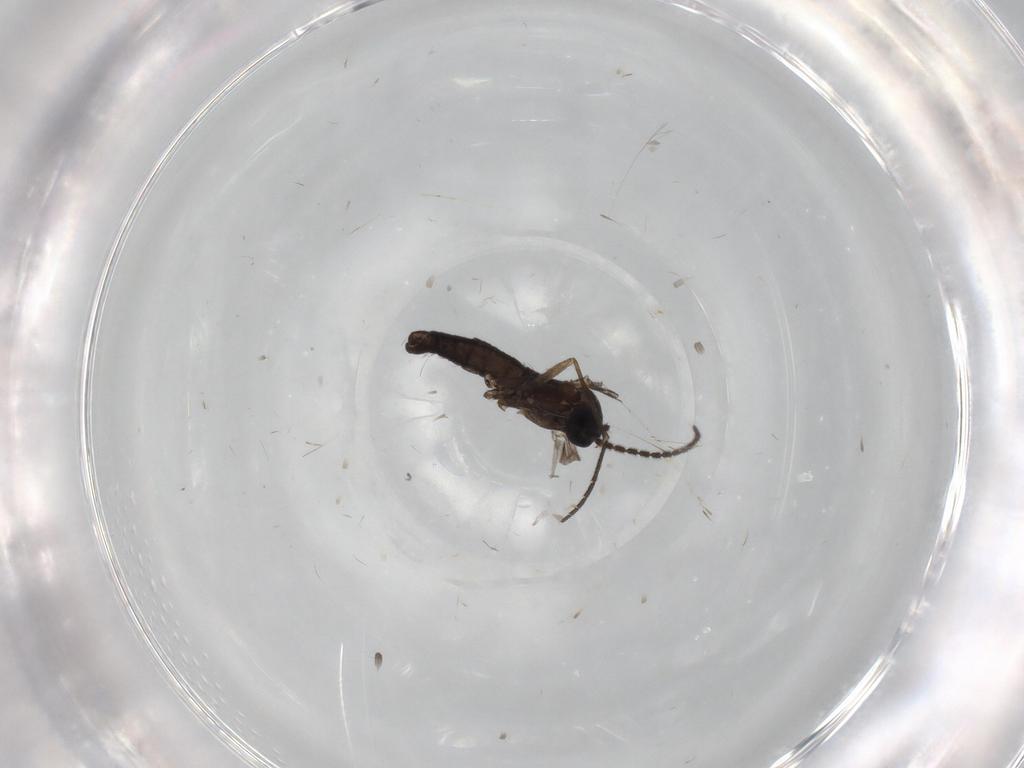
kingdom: Animalia
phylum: Arthropoda
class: Insecta
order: Diptera
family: Sciaridae
